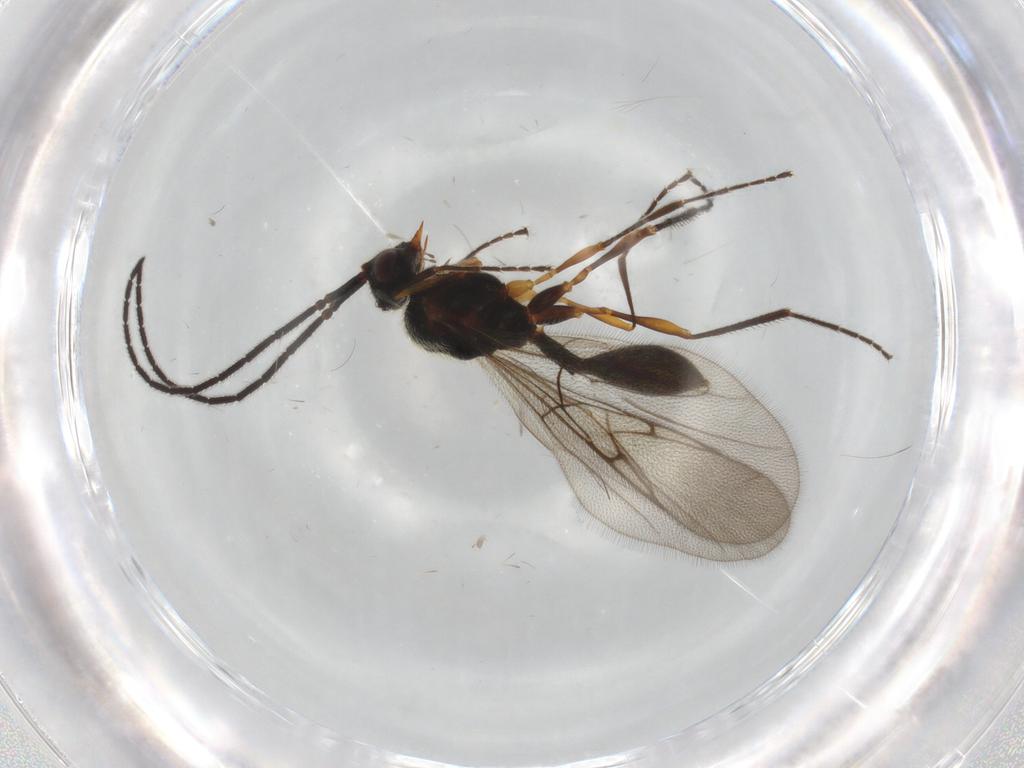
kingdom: Animalia
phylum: Arthropoda
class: Insecta
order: Hymenoptera
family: Diapriidae
